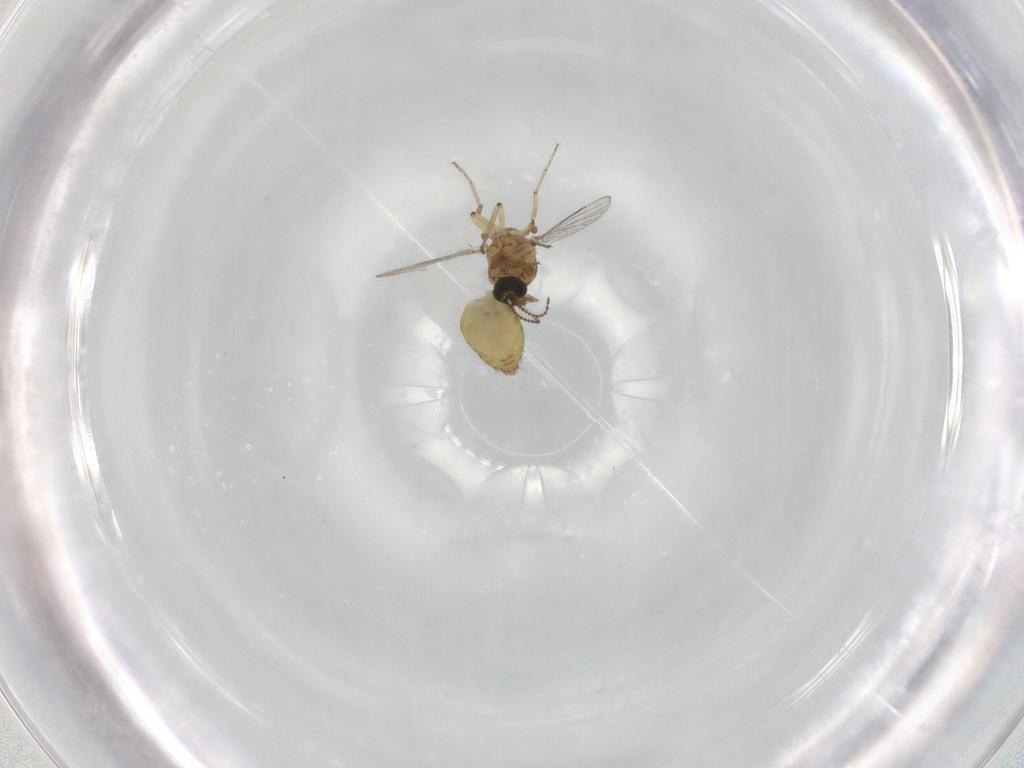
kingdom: Animalia
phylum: Arthropoda
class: Insecta
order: Diptera
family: Ceratopogonidae
